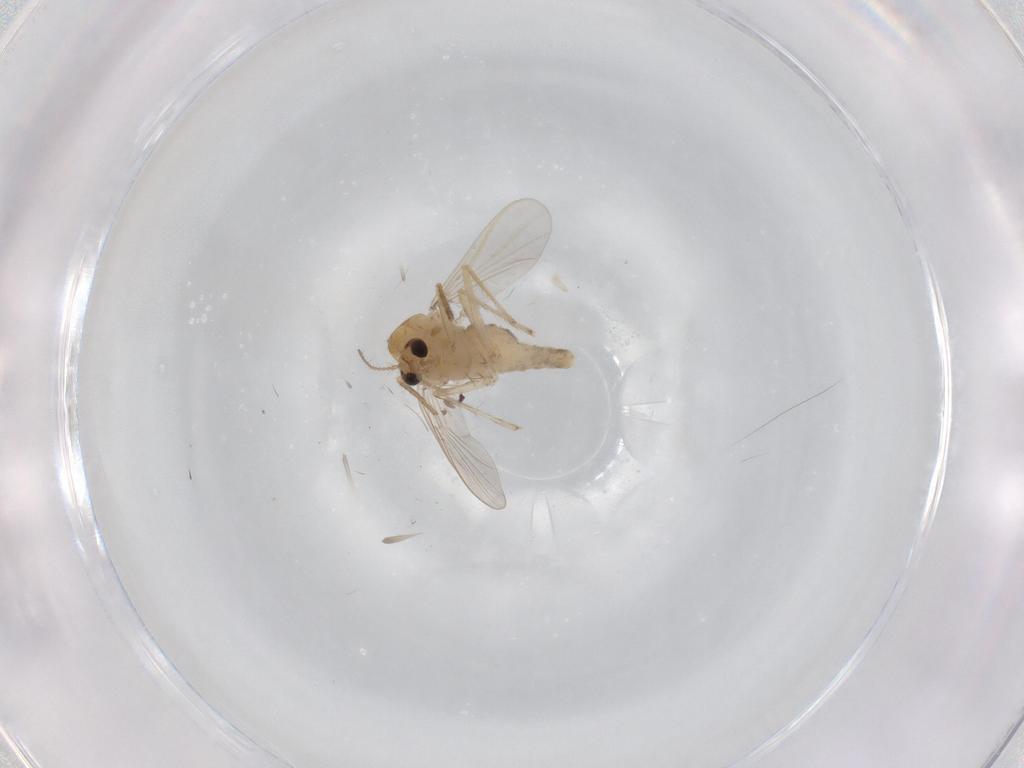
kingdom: Animalia
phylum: Arthropoda
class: Insecta
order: Diptera
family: Chironomidae
